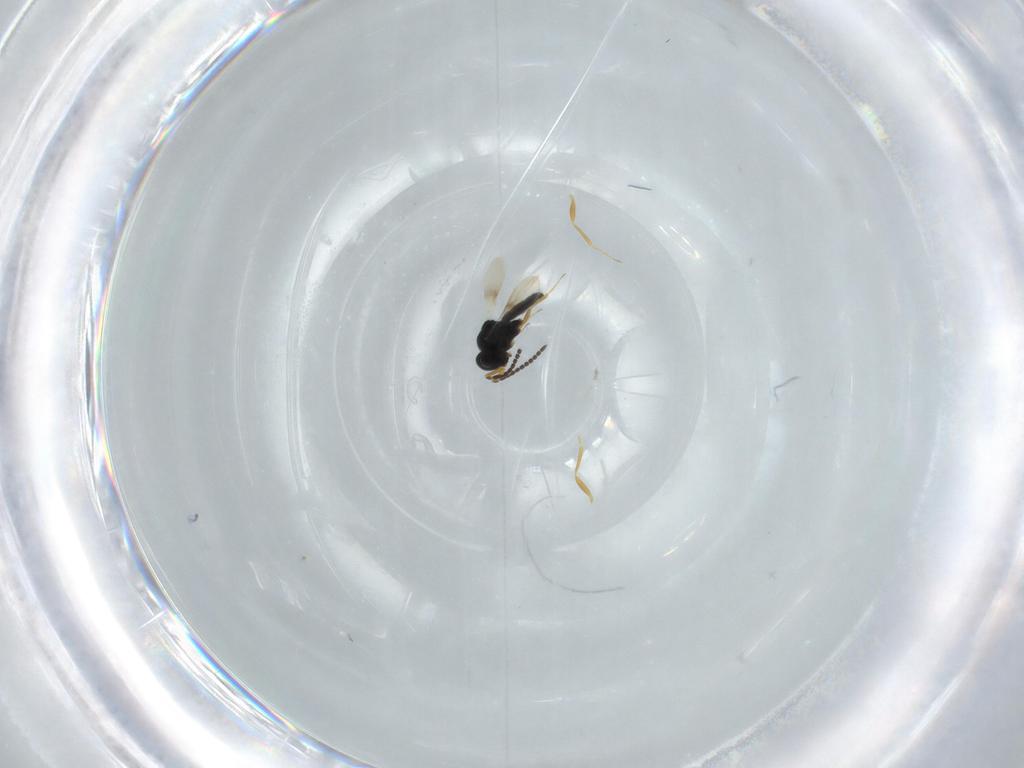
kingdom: Animalia
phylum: Arthropoda
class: Insecta
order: Hymenoptera
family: Scelionidae
